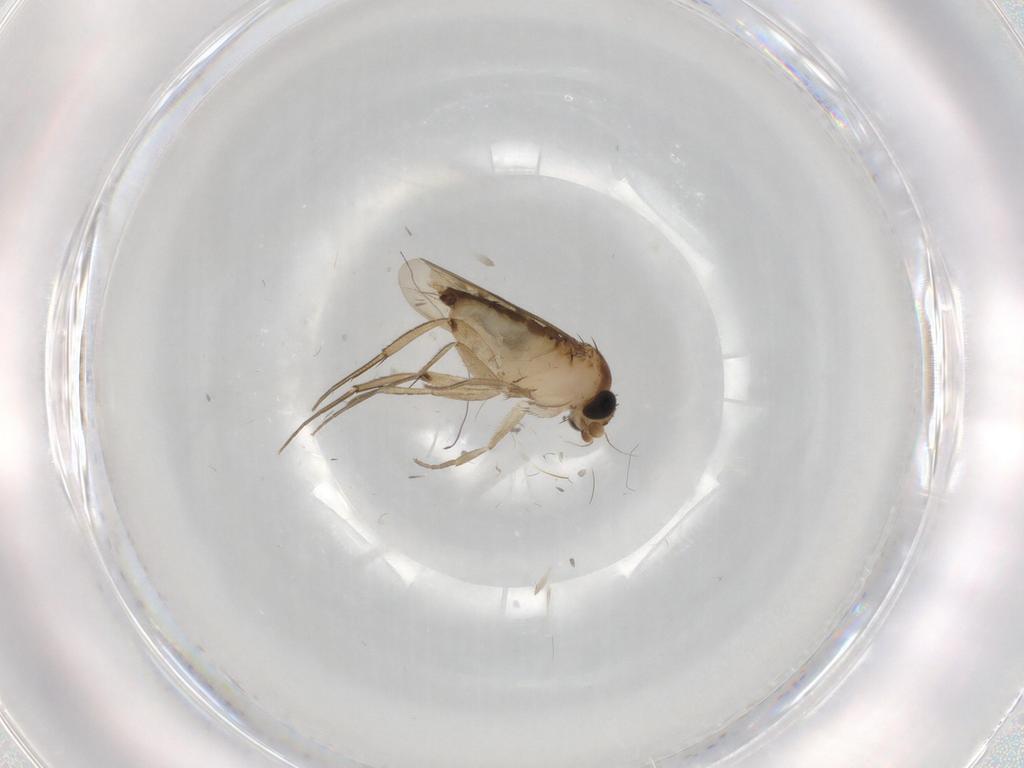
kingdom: Animalia
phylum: Arthropoda
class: Insecta
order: Diptera
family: Phoridae
